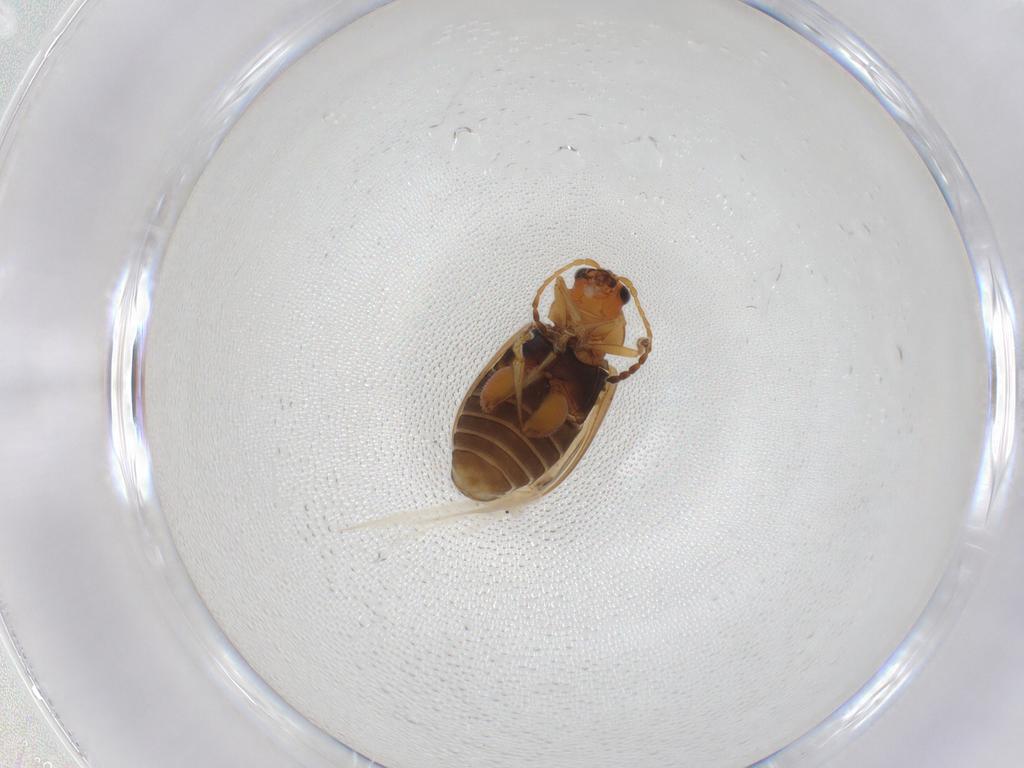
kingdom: Animalia
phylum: Arthropoda
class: Insecta
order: Coleoptera
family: Chrysomelidae
